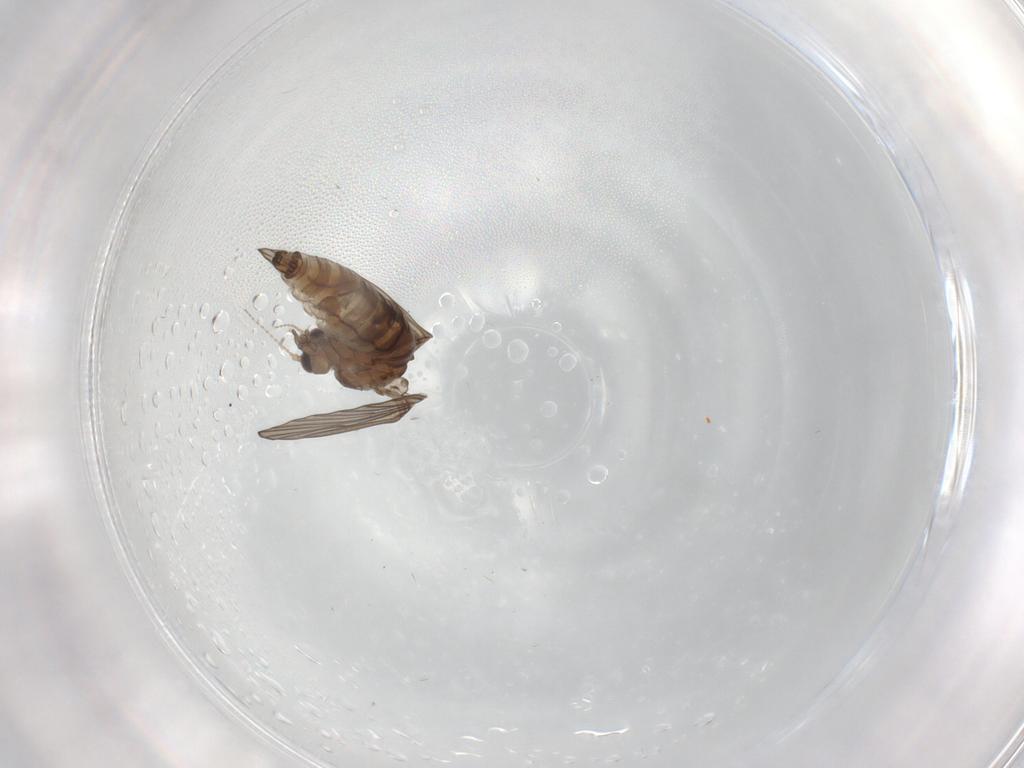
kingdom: Animalia
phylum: Arthropoda
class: Insecta
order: Diptera
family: Psychodidae
